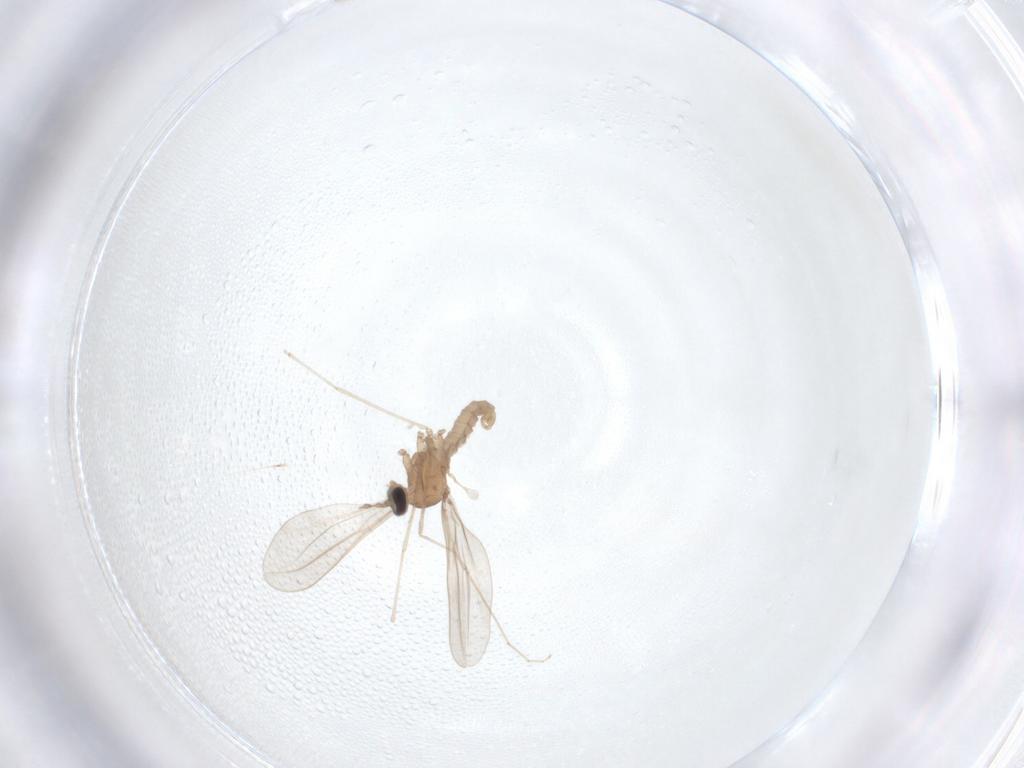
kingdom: Animalia
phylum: Arthropoda
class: Insecta
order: Diptera
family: Cecidomyiidae
